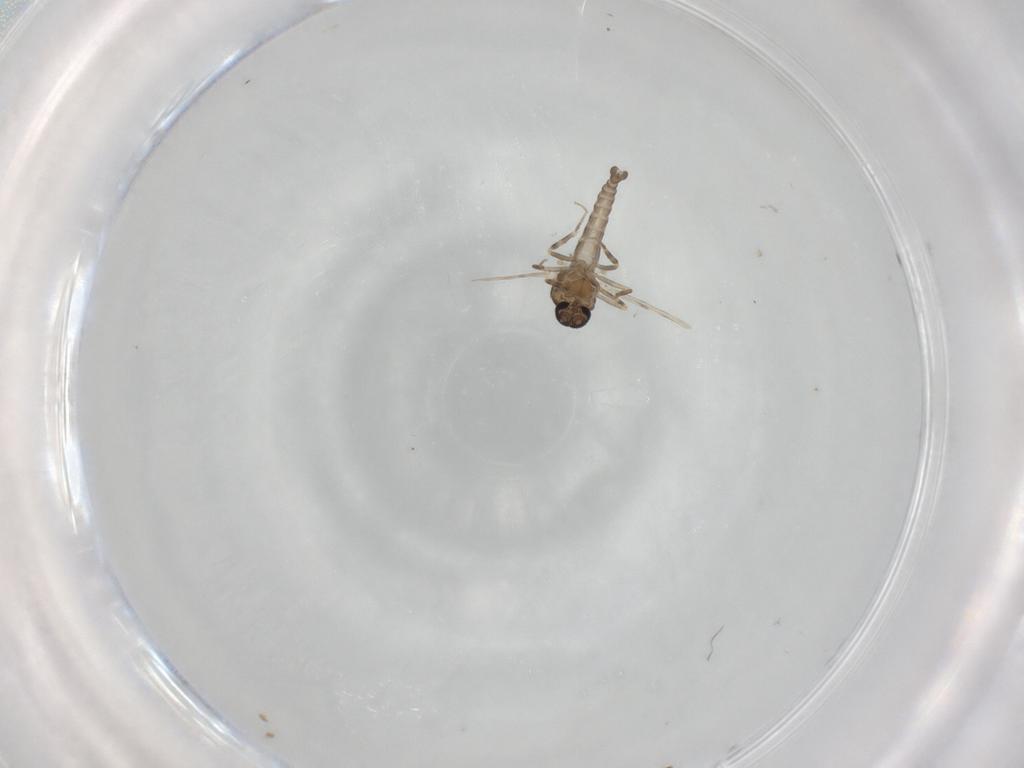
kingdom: Animalia
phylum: Arthropoda
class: Insecta
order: Diptera
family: Ceratopogonidae
